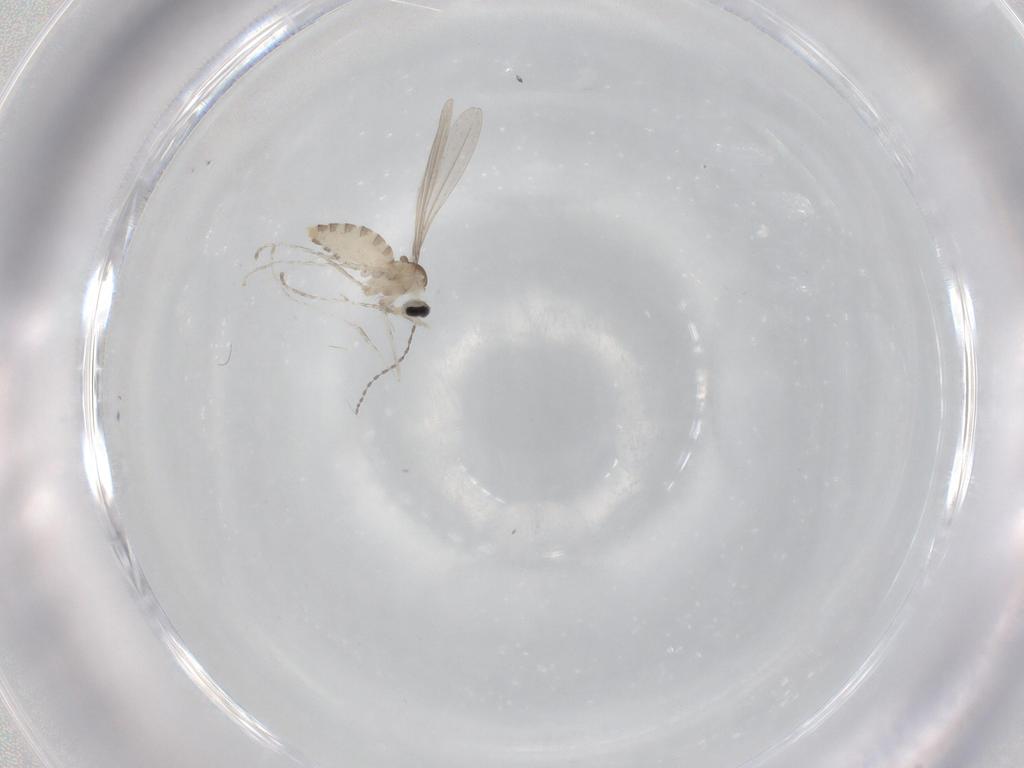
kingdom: Animalia
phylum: Arthropoda
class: Insecta
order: Diptera
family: Cecidomyiidae
